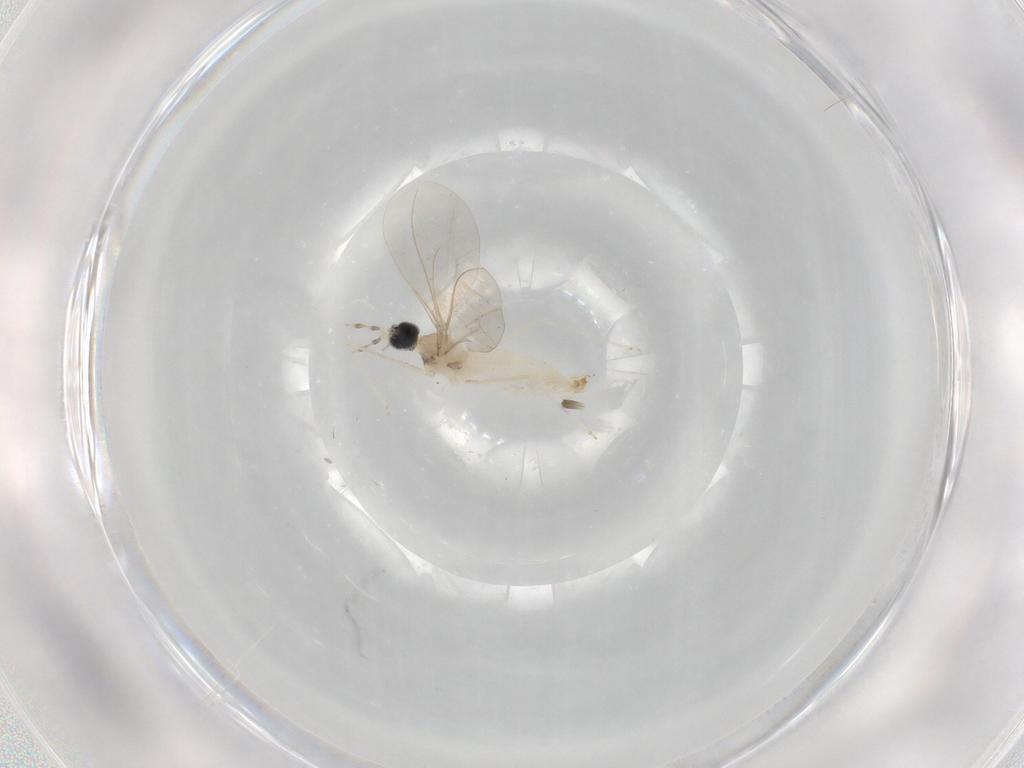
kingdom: Animalia
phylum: Arthropoda
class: Insecta
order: Diptera
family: Cecidomyiidae
